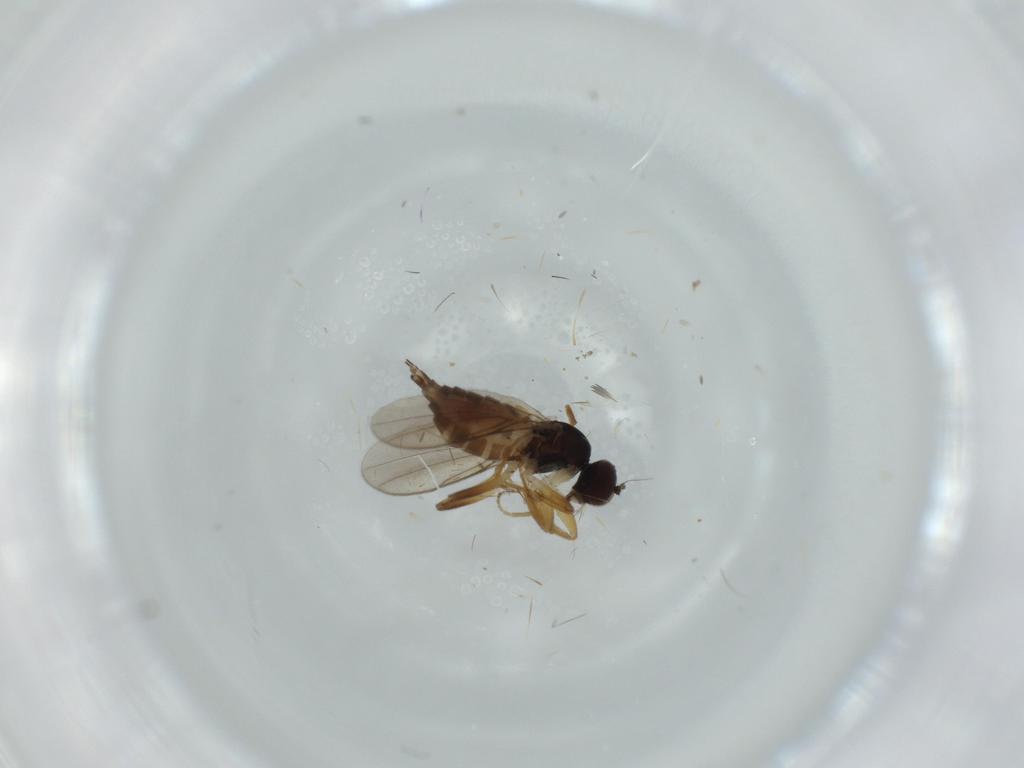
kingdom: Animalia
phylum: Arthropoda
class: Insecta
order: Diptera
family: Hybotidae
